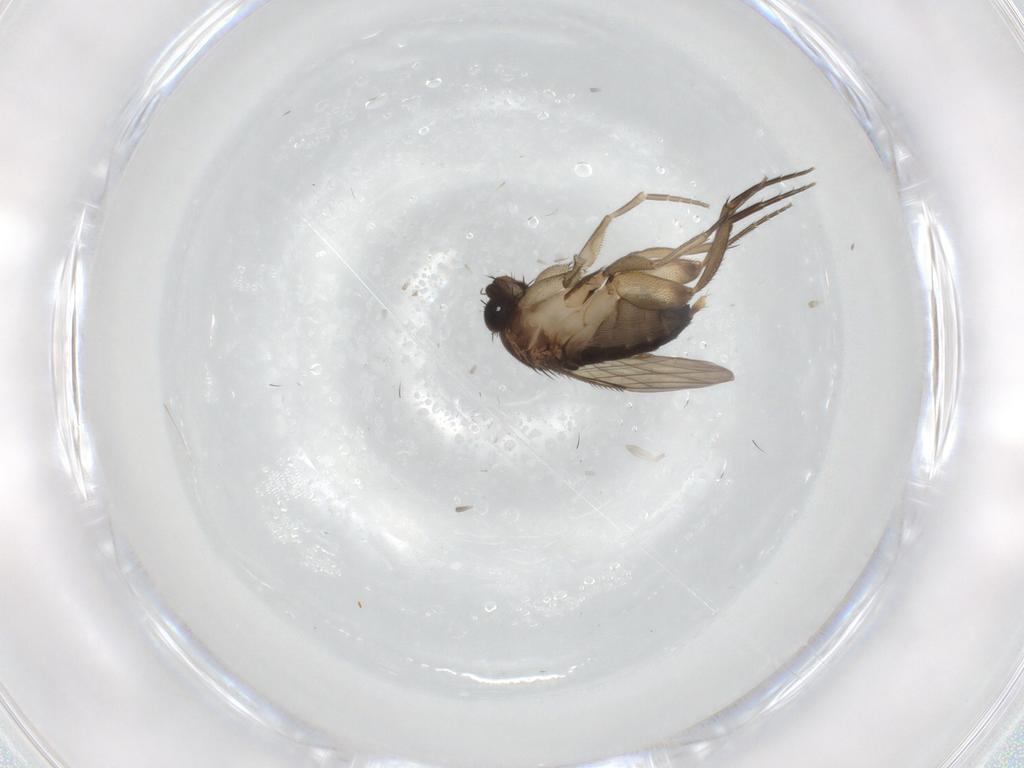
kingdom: Animalia
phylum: Arthropoda
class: Insecta
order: Diptera
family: Phoridae
